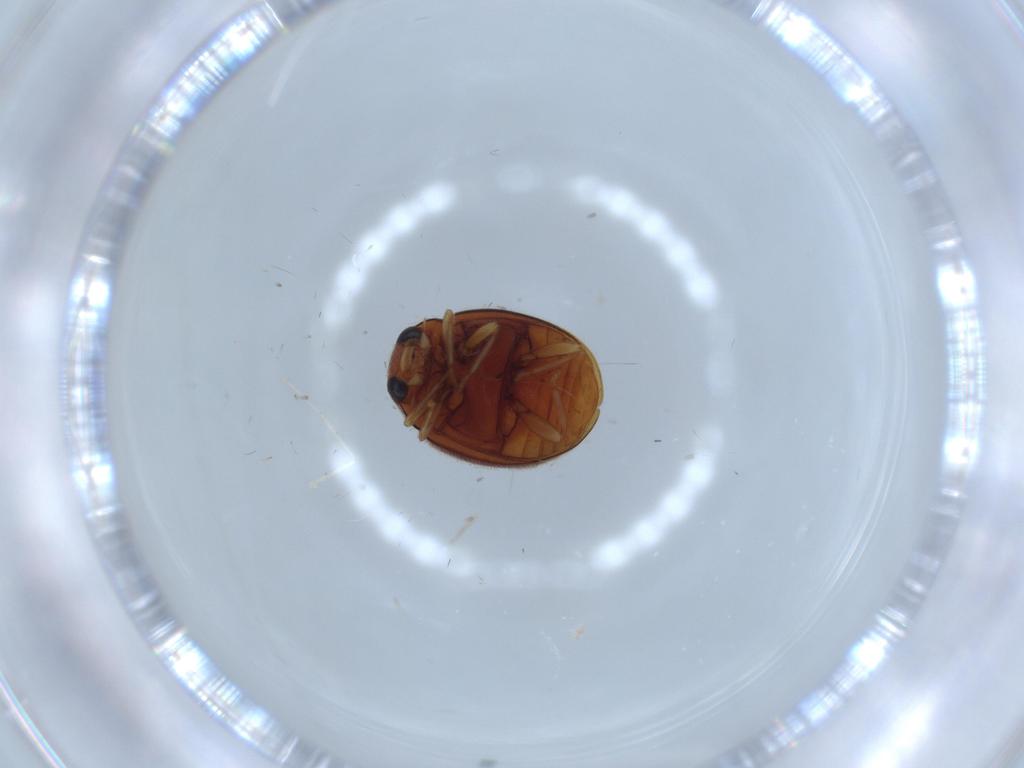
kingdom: Animalia
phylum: Arthropoda
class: Insecta
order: Coleoptera
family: Coccinellidae
